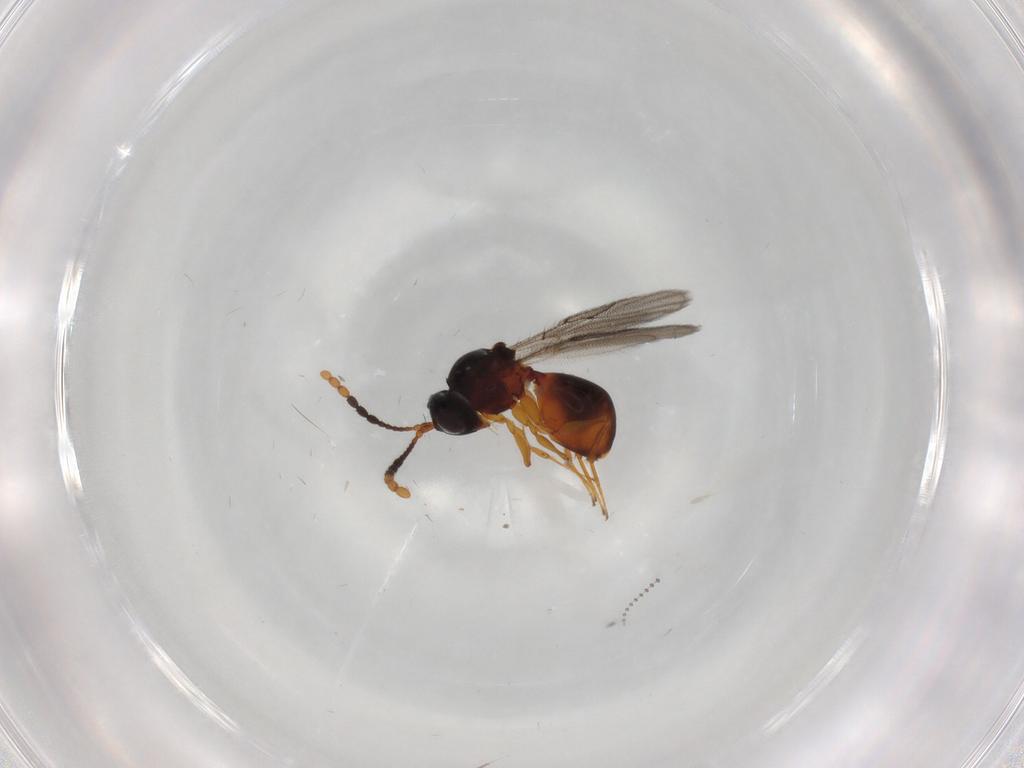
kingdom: Animalia
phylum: Arthropoda
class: Insecta
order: Hymenoptera
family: Figitidae
